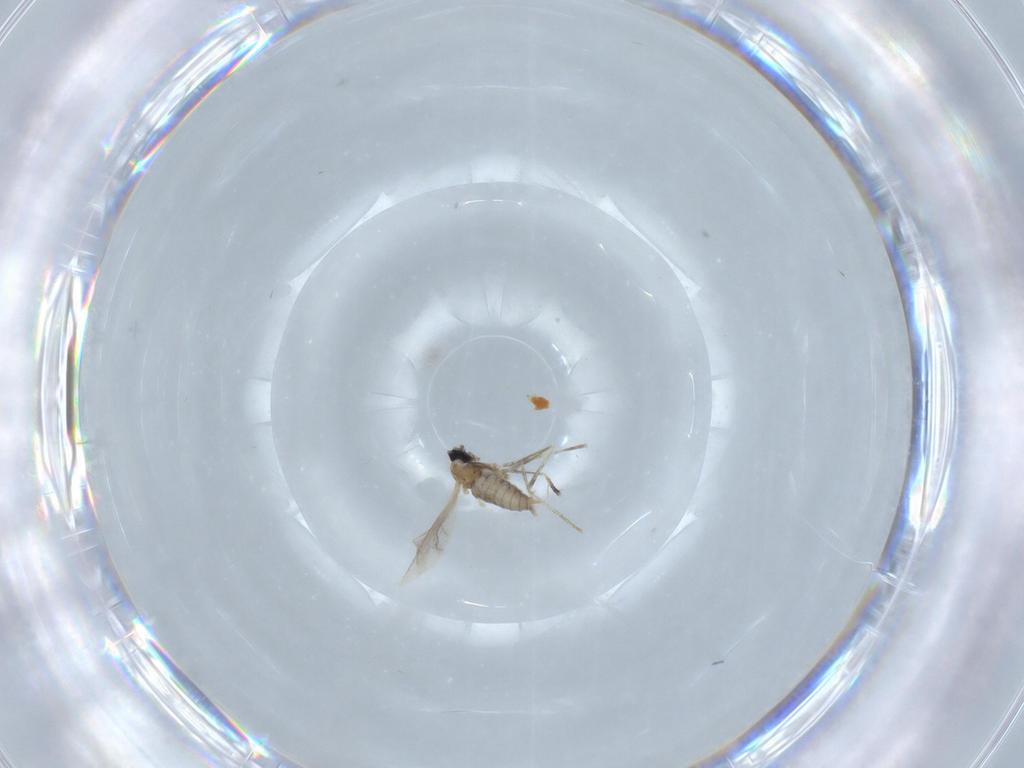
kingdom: Animalia
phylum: Arthropoda
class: Insecta
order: Diptera
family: Cecidomyiidae
